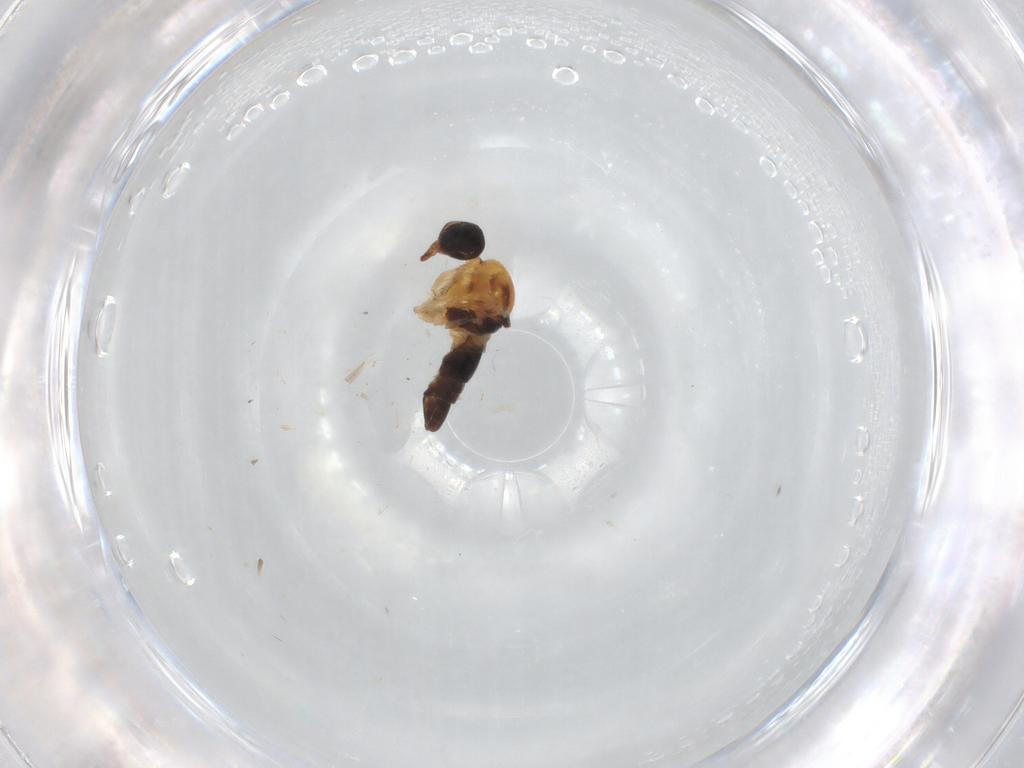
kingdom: Animalia
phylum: Arthropoda
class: Insecta
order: Diptera
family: Hybotidae
